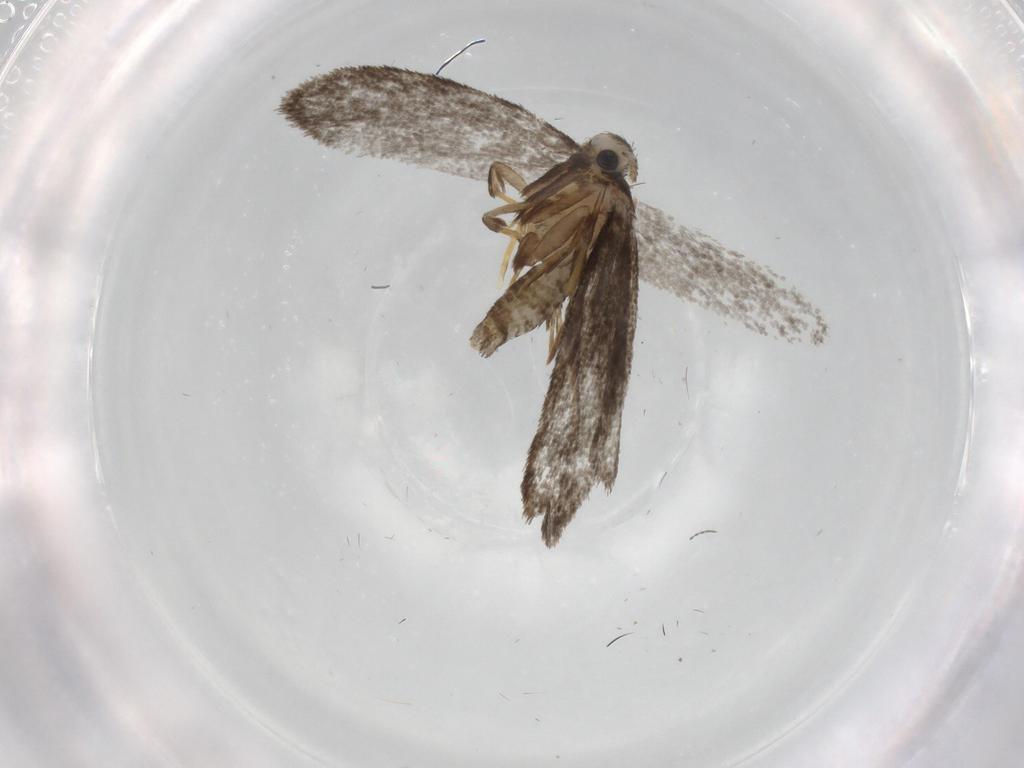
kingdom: Animalia
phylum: Arthropoda
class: Insecta
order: Lepidoptera
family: Psychidae
